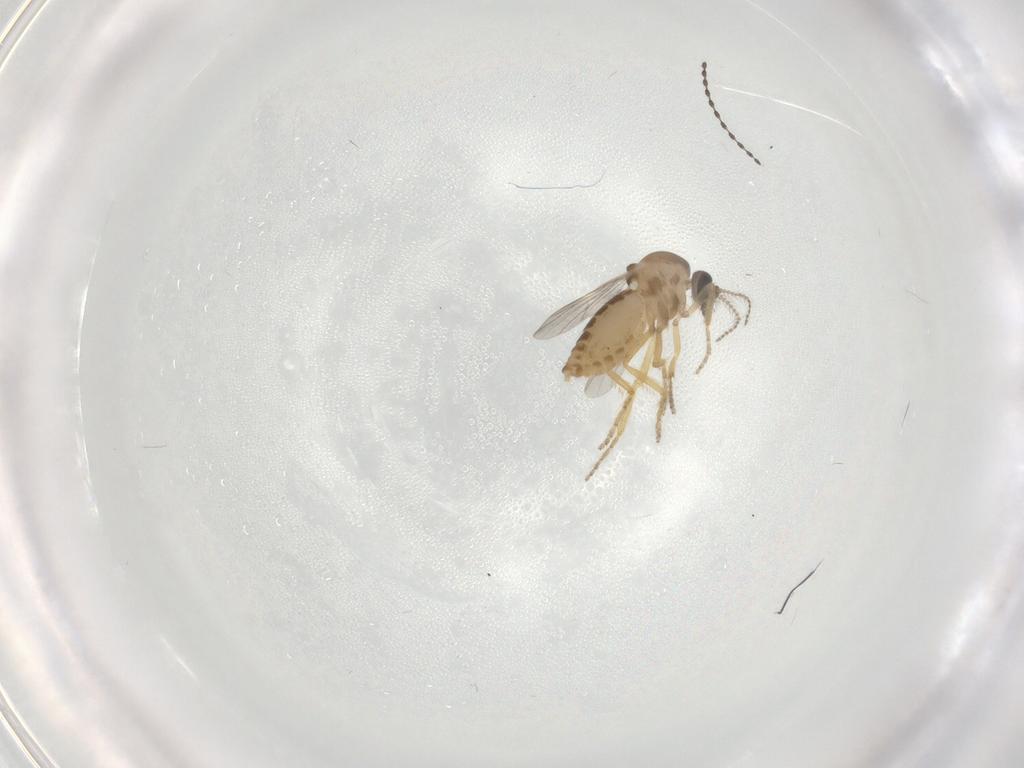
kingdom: Animalia
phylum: Arthropoda
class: Insecta
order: Diptera
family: Ceratopogonidae
